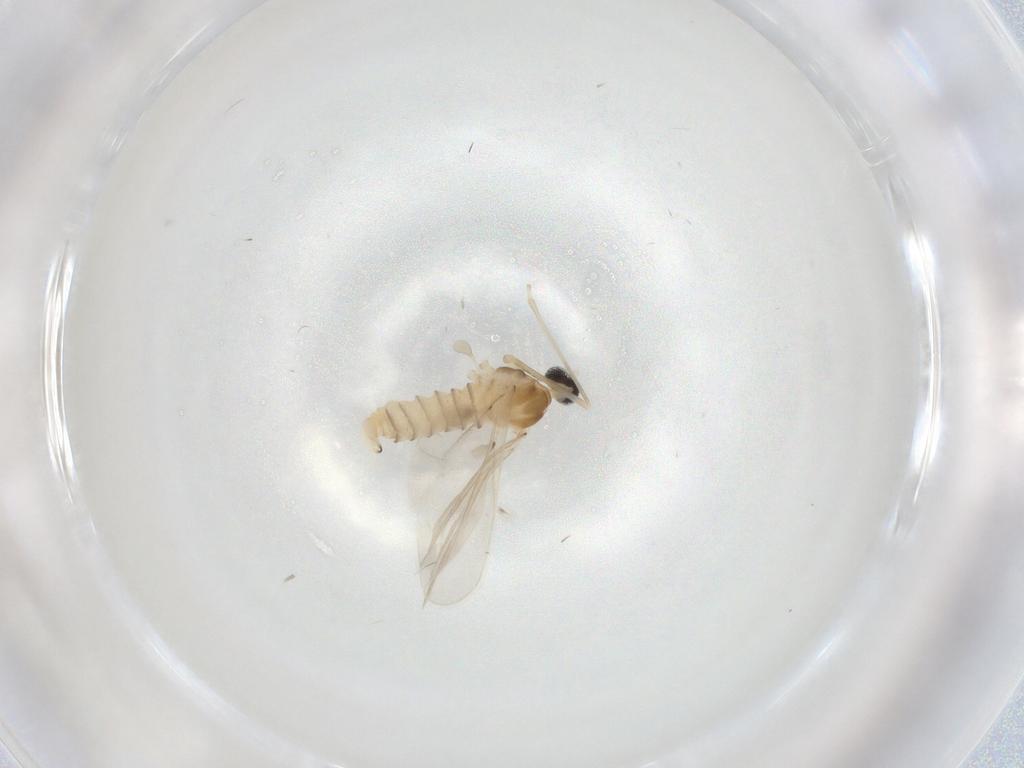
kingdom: Animalia
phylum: Arthropoda
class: Insecta
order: Diptera
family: Cecidomyiidae
